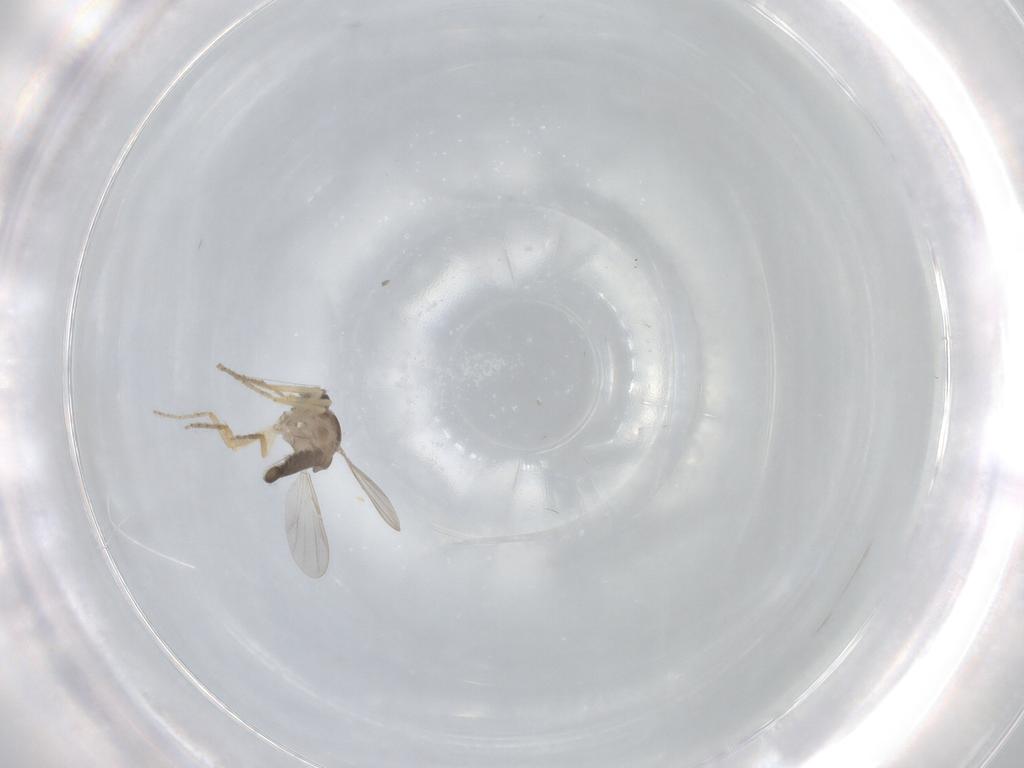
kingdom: Animalia
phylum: Arthropoda
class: Insecta
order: Diptera
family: Ceratopogonidae
